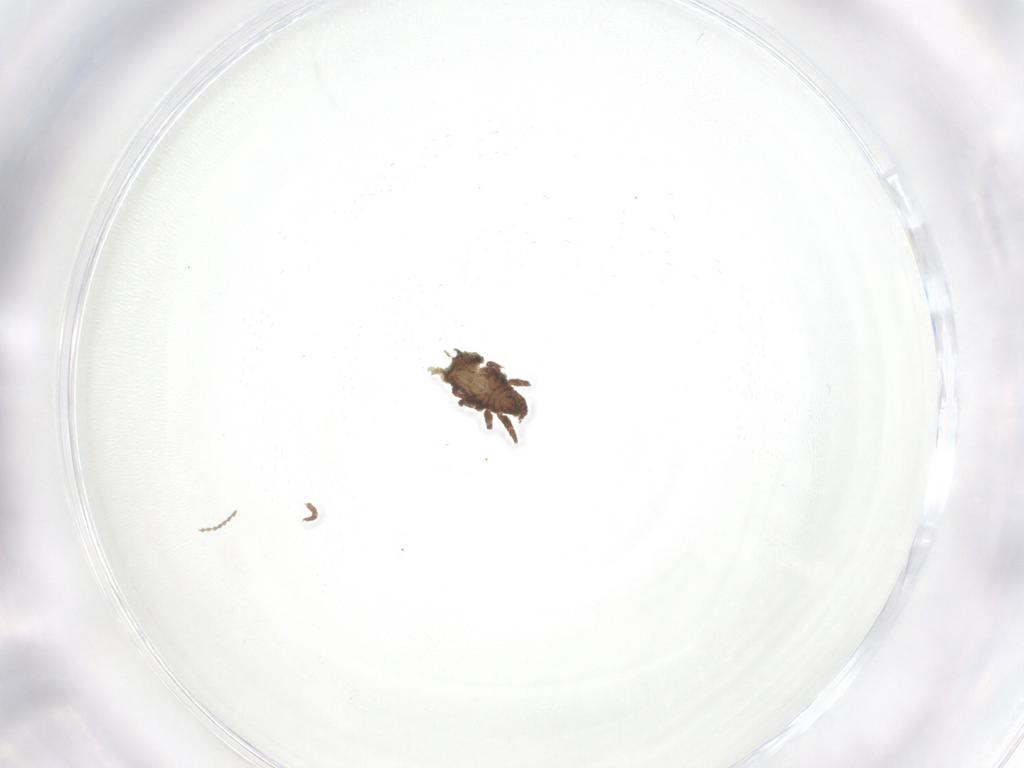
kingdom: Animalia
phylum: Arthropoda
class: Insecta
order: Diptera
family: Cecidomyiidae
